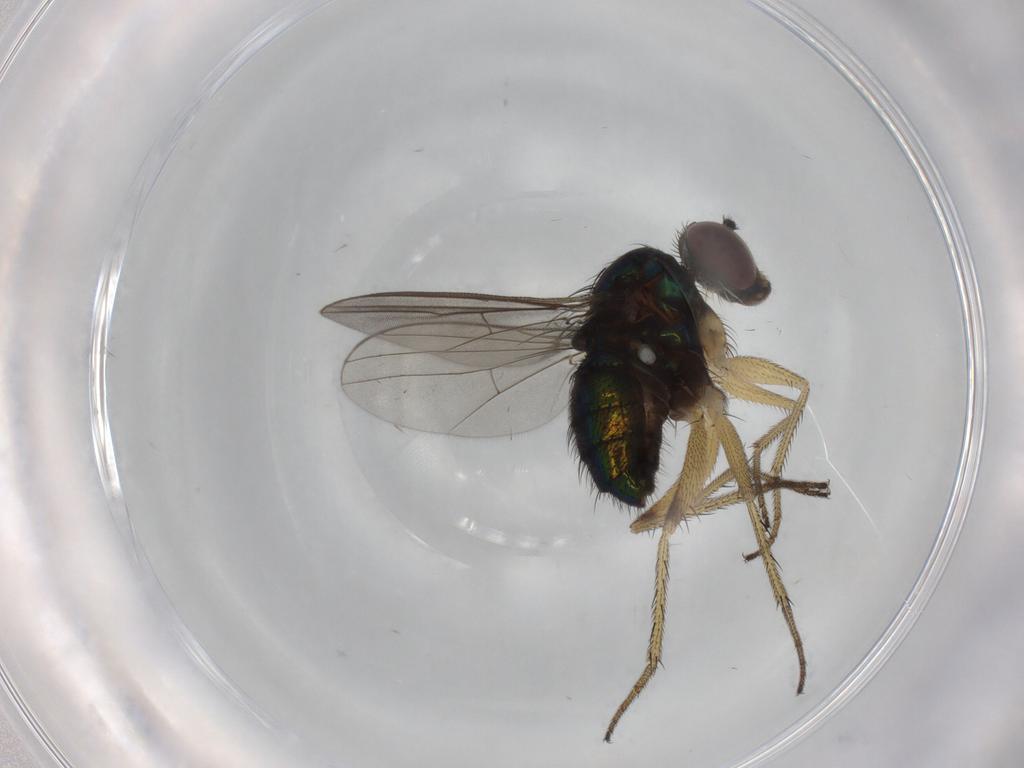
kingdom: Animalia
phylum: Arthropoda
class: Insecta
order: Diptera
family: Dolichopodidae
